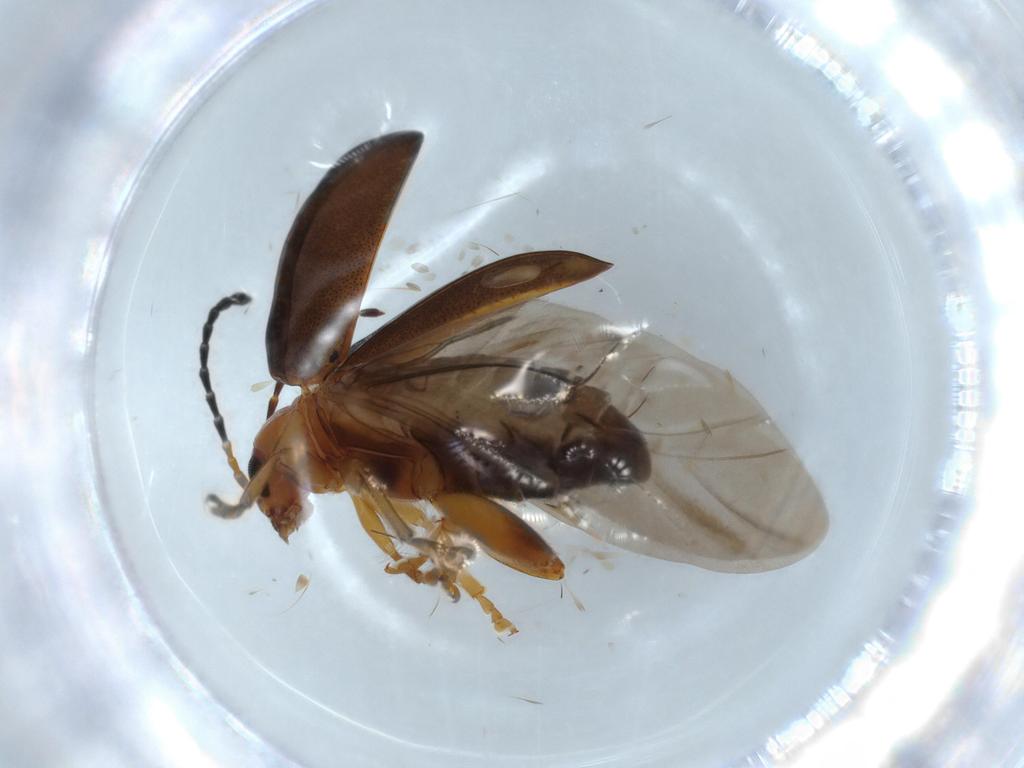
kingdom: Animalia
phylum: Arthropoda
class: Insecta
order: Coleoptera
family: Chrysomelidae
